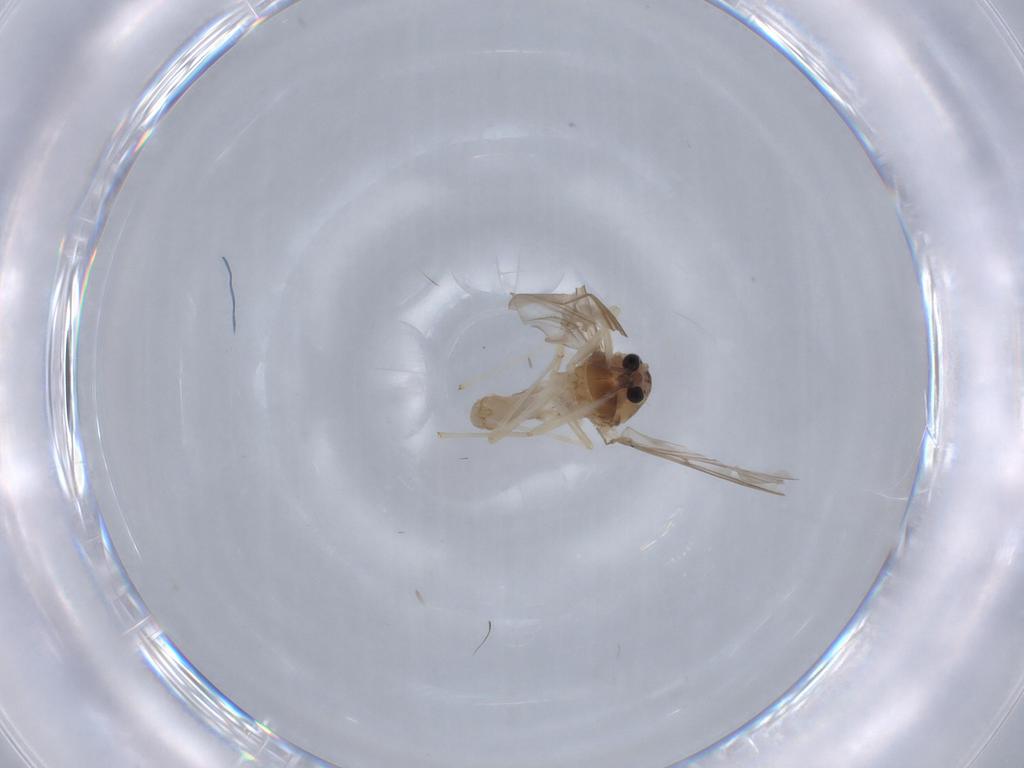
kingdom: Animalia
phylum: Arthropoda
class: Insecta
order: Diptera
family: Chironomidae
